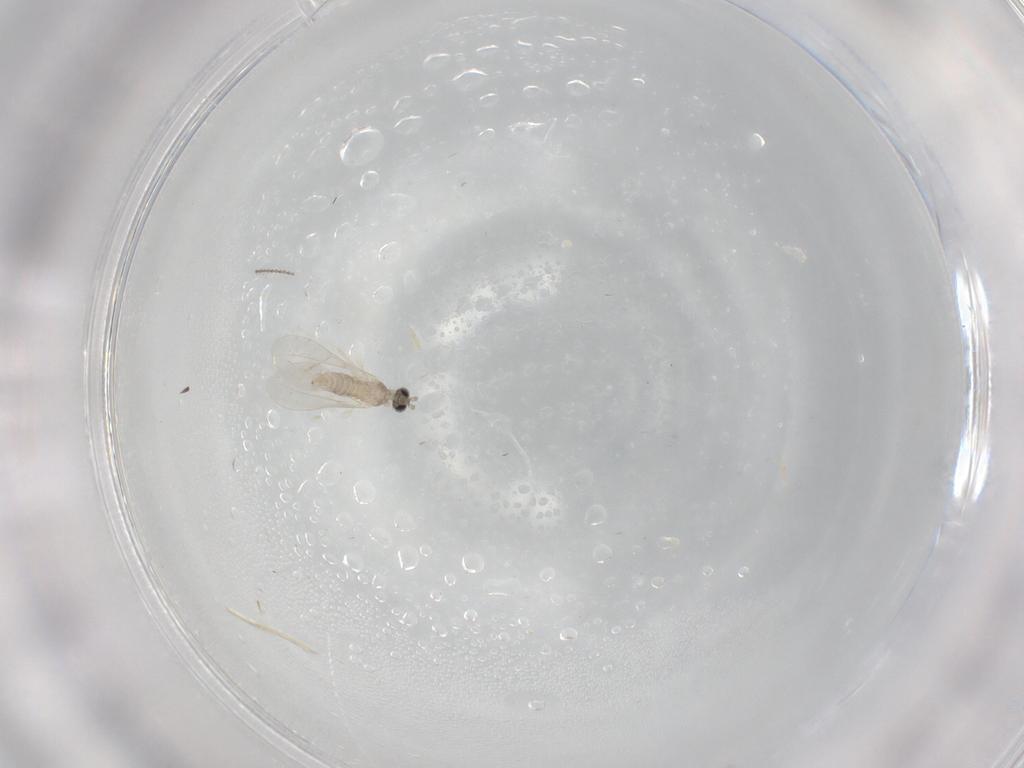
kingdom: Animalia
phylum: Arthropoda
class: Insecta
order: Diptera
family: Cecidomyiidae
